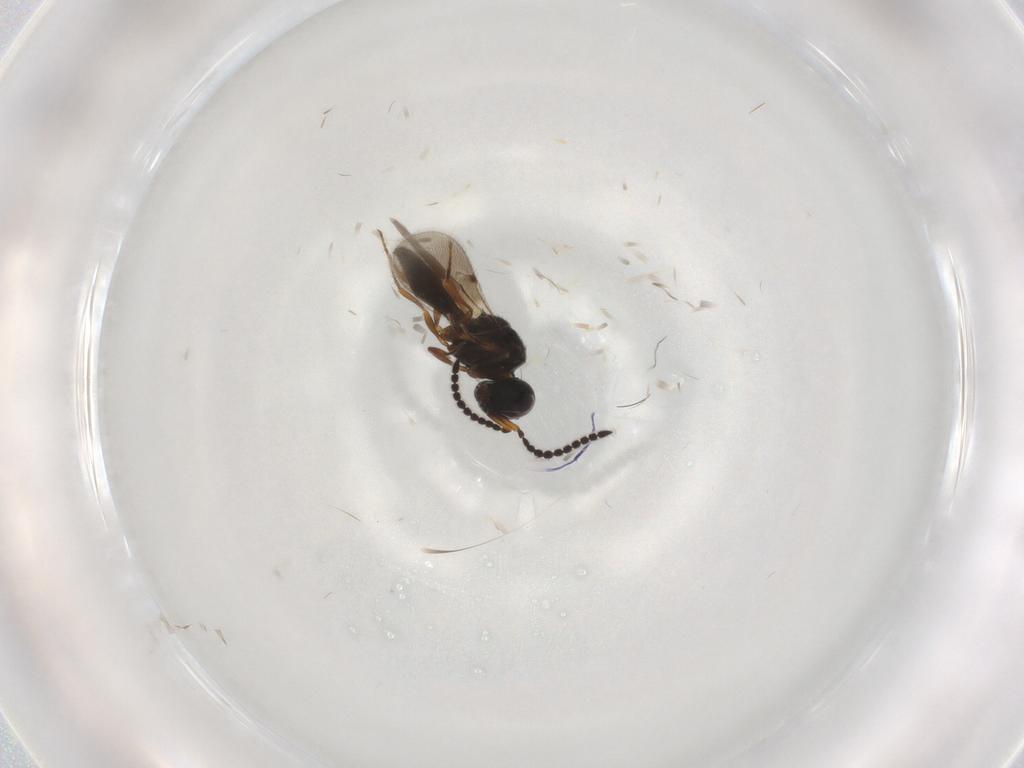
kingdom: Animalia
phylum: Arthropoda
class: Insecta
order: Hymenoptera
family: Scelionidae
